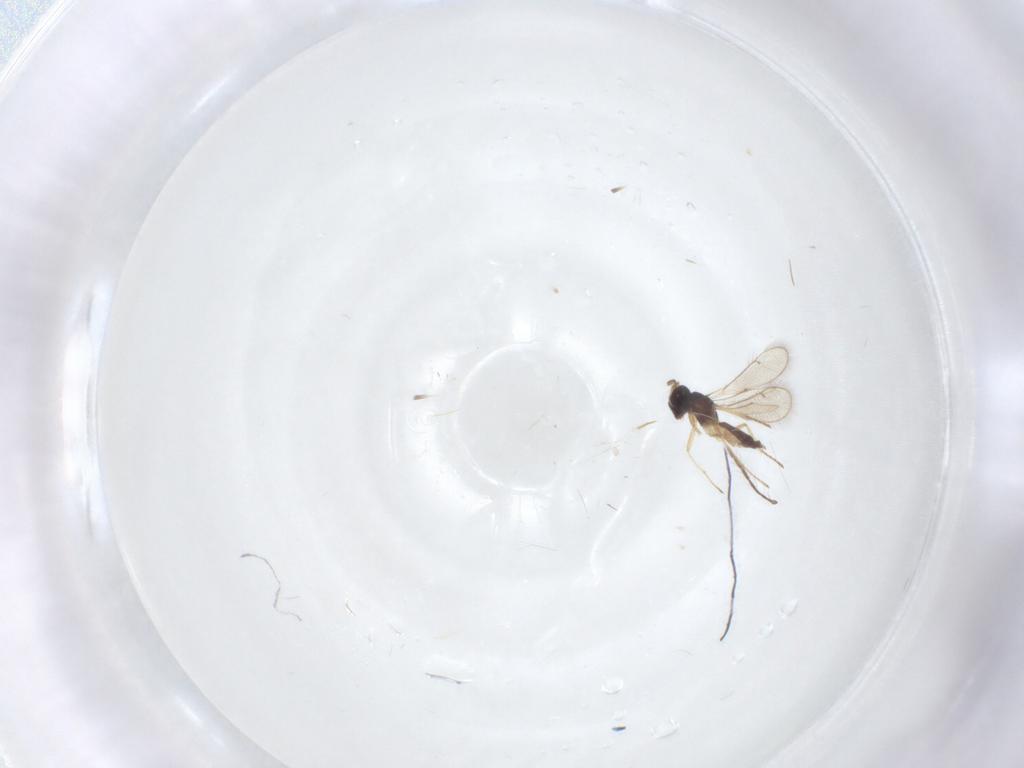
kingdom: Animalia
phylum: Arthropoda
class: Insecta
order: Hymenoptera
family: Eulophidae
